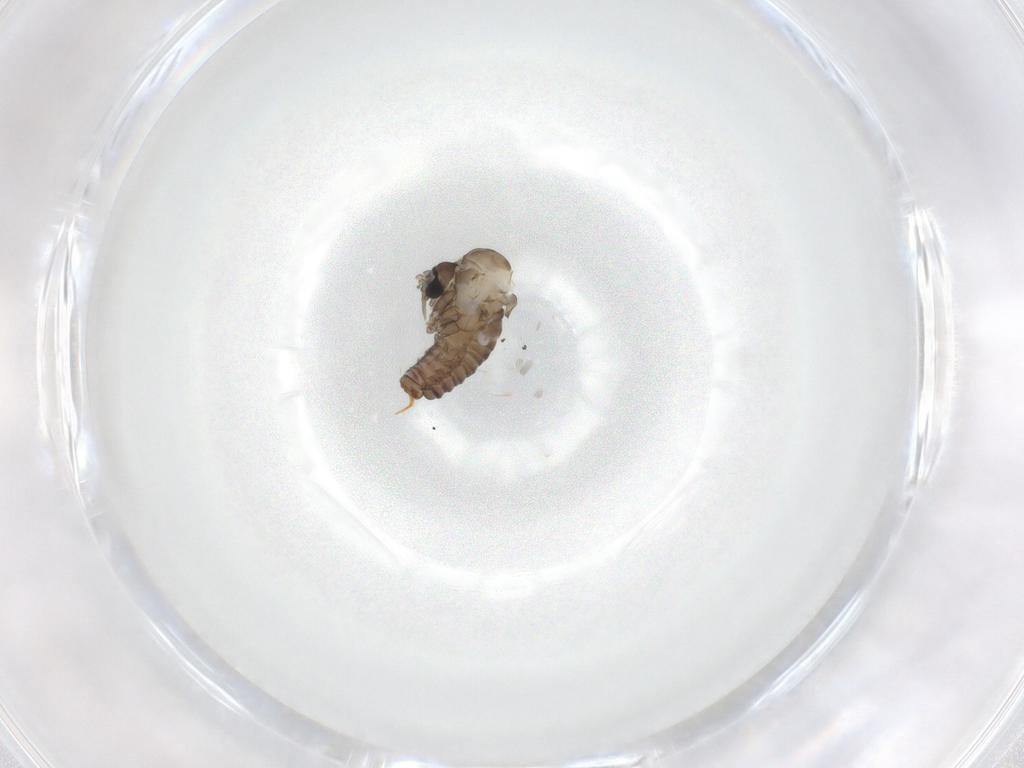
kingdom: Animalia
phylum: Arthropoda
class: Insecta
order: Diptera
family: Psychodidae
